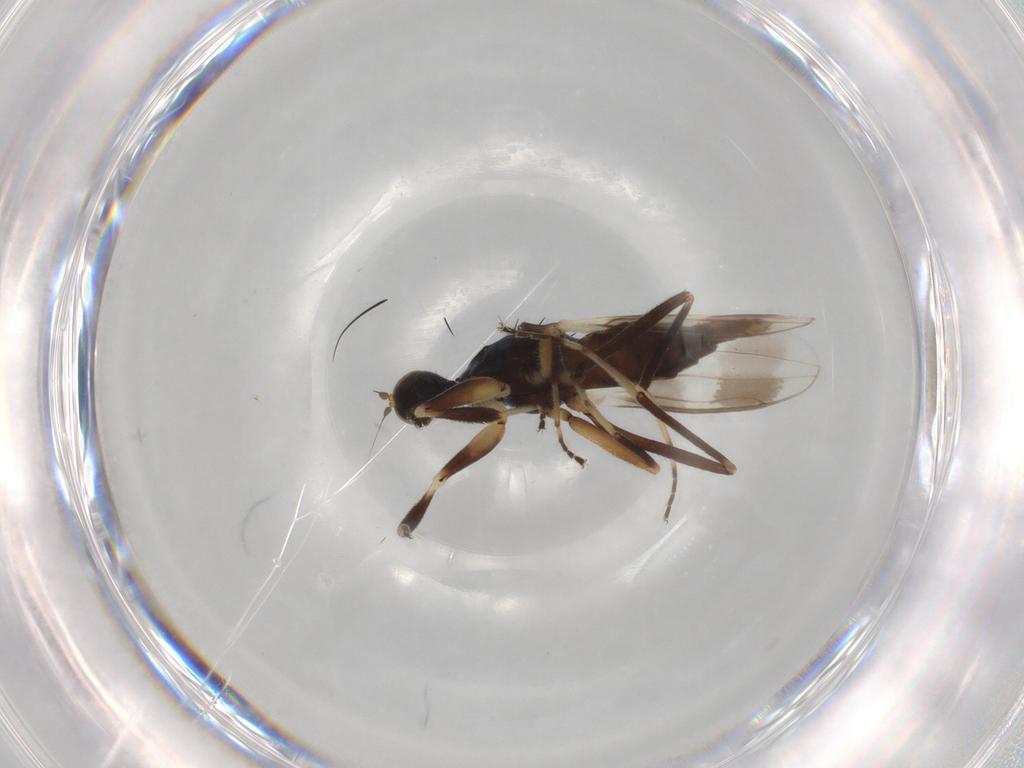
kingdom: Animalia
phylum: Arthropoda
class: Insecta
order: Diptera
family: Hybotidae
